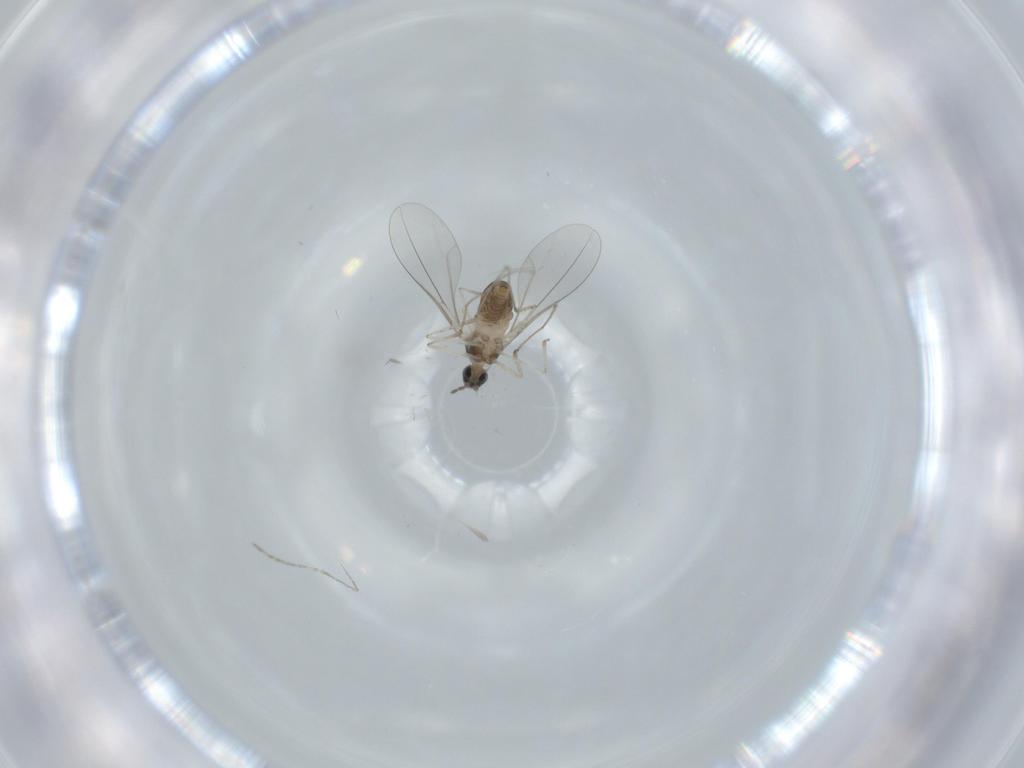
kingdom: Animalia
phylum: Arthropoda
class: Insecta
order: Diptera
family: Cecidomyiidae
